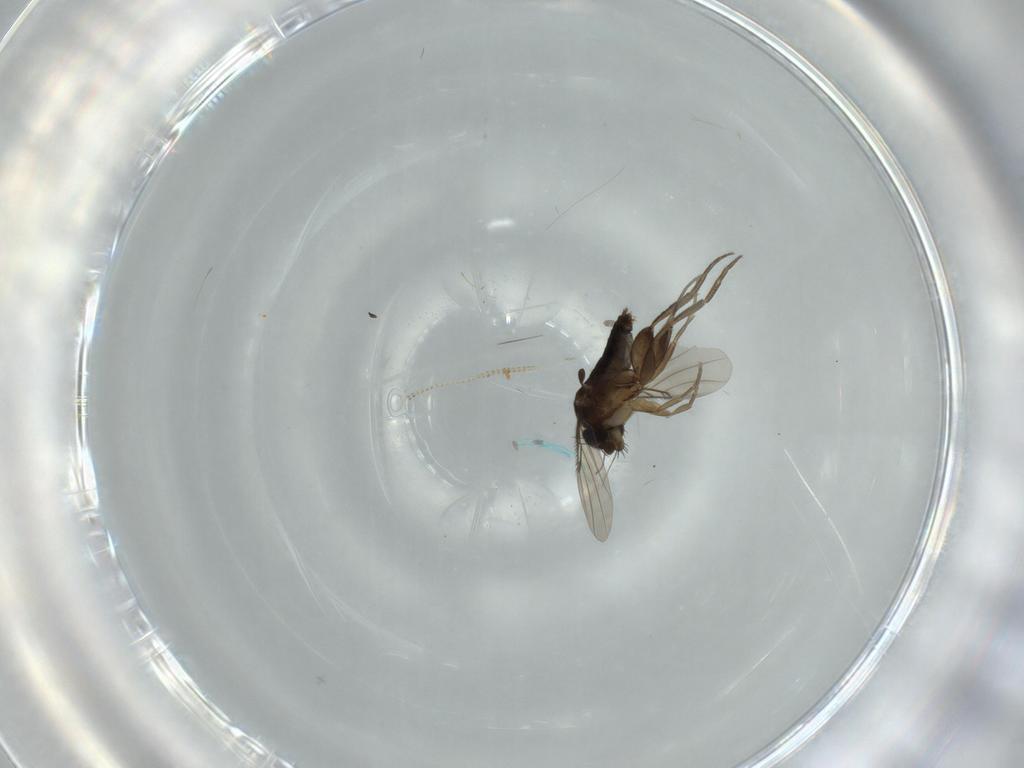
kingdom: Animalia
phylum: Arthropoda
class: Insecta
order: Diptera
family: Phoridae
